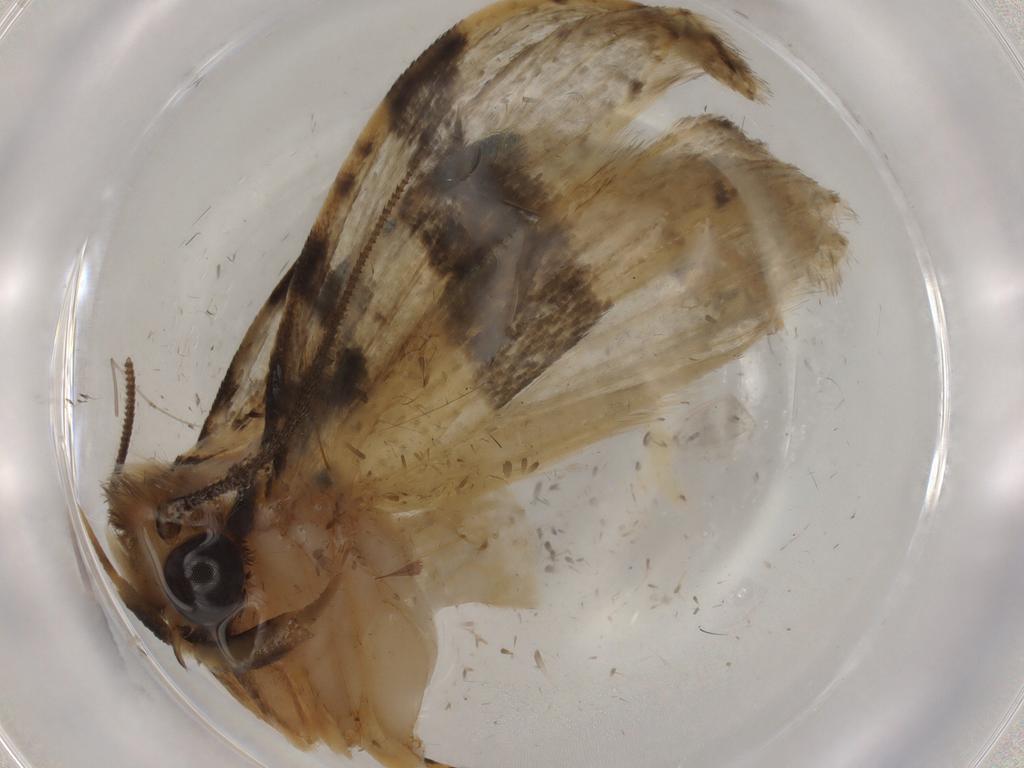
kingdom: Animalia
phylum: Arthropoda
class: Insecta
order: Lepidoptera
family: Tineidae
